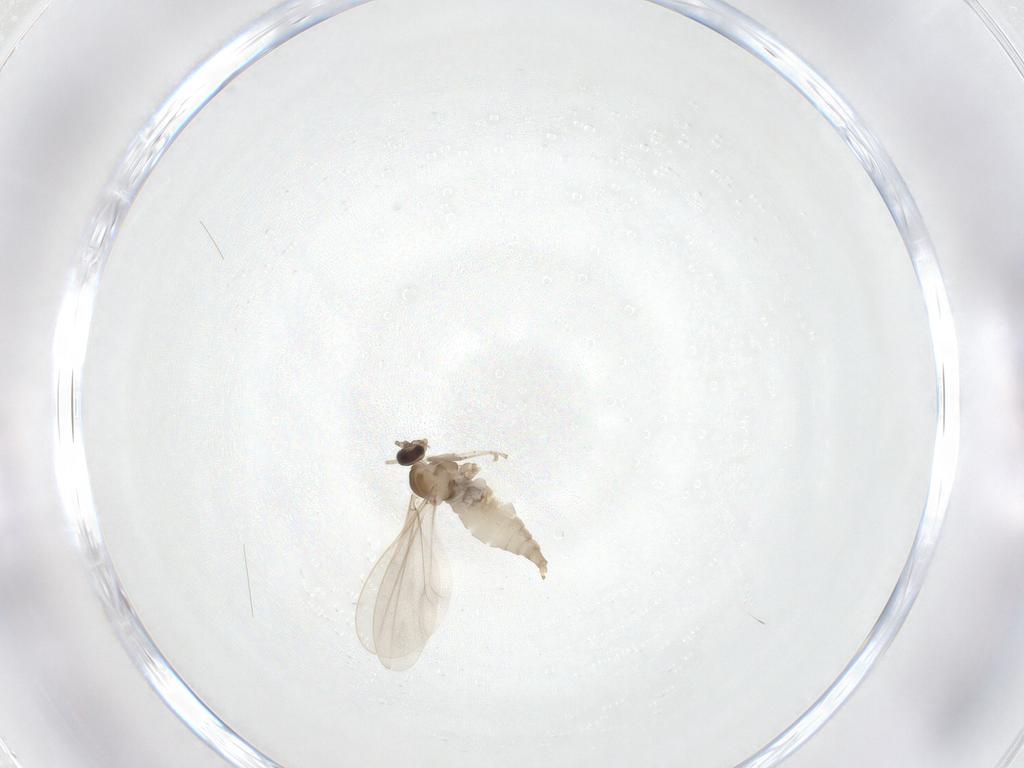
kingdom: Animalia
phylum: Arthropoda
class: Insecta
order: Diptera
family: Cecidomyiidae
